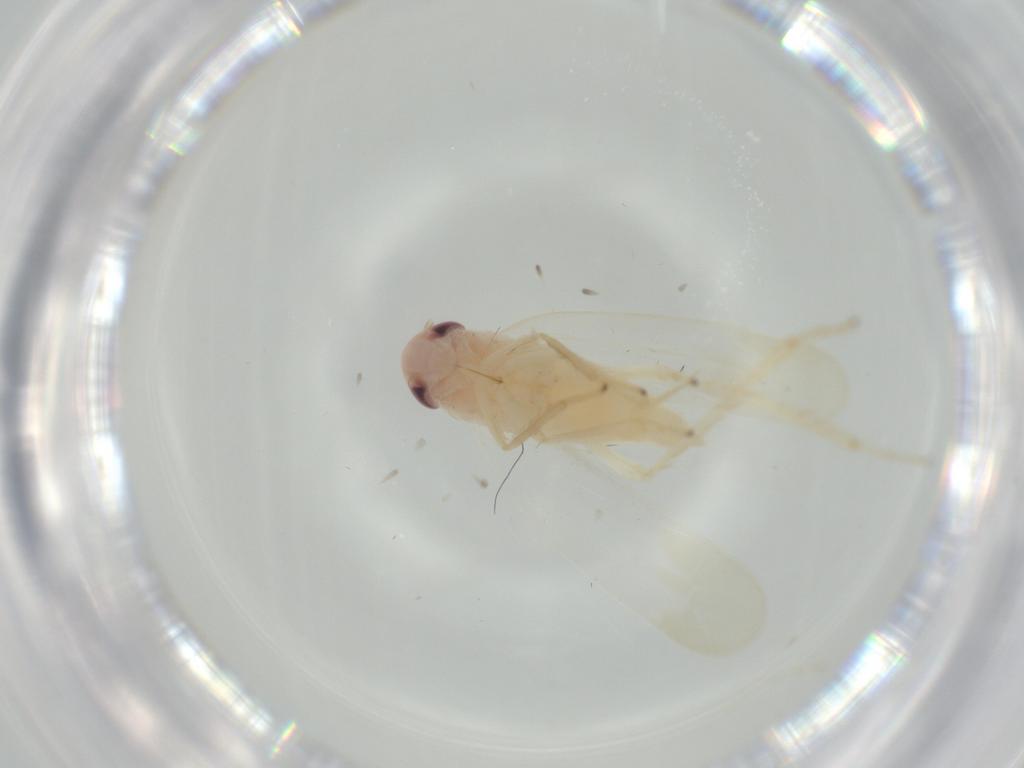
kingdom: Animalia
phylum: Arthropoda
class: Insecta
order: Hemiptera
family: Cicadellidae
